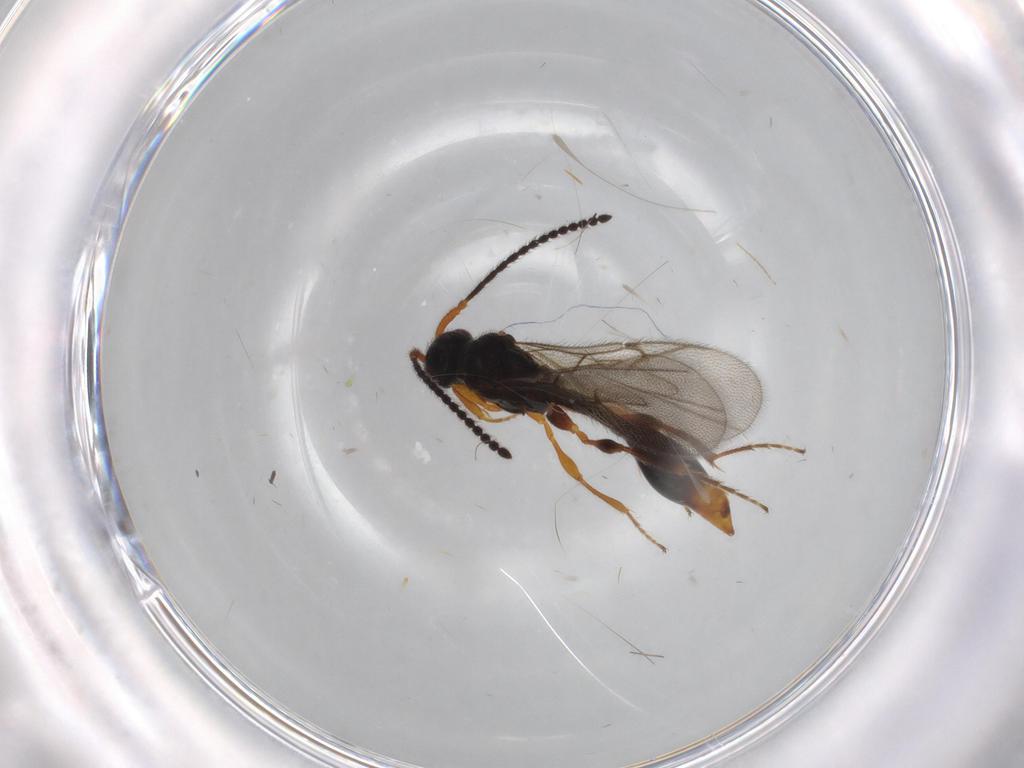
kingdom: Animalia
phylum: Arthropoda
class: Insecta
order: Hymenoptera
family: Diapriidae
